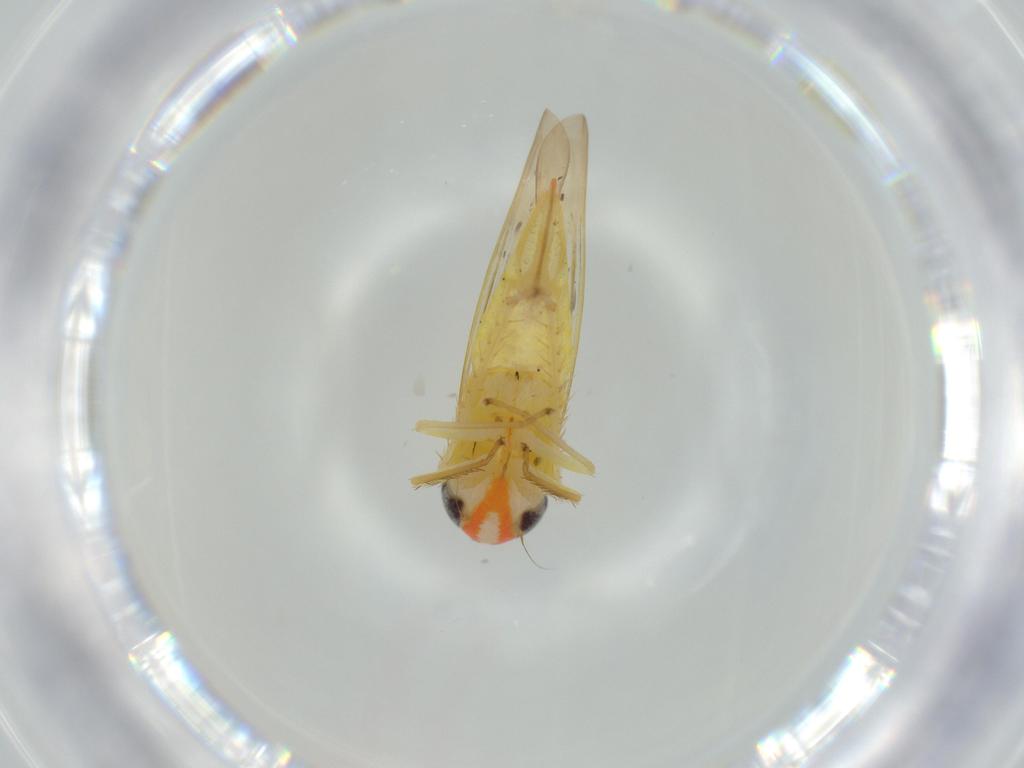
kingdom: Animalia
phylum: Arthropoda
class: Insecta
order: Hemiptera
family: Cicadellidae
